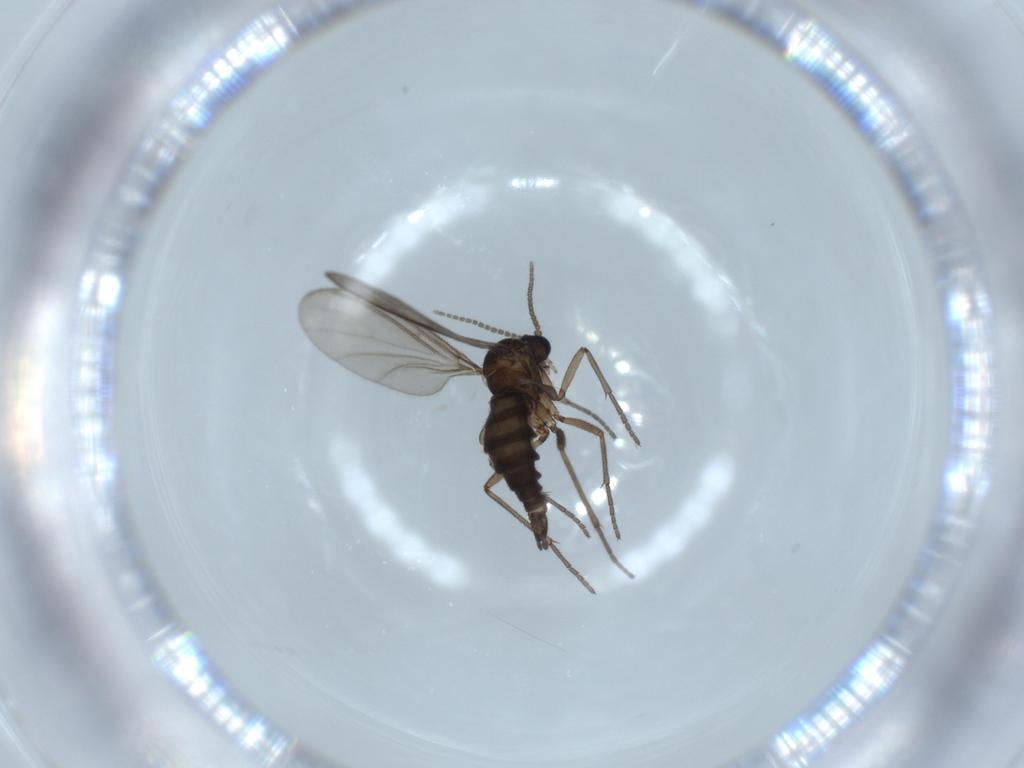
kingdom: Animalia
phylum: Arthropoda
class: Insecta
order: Diptera
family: Sciaridae
